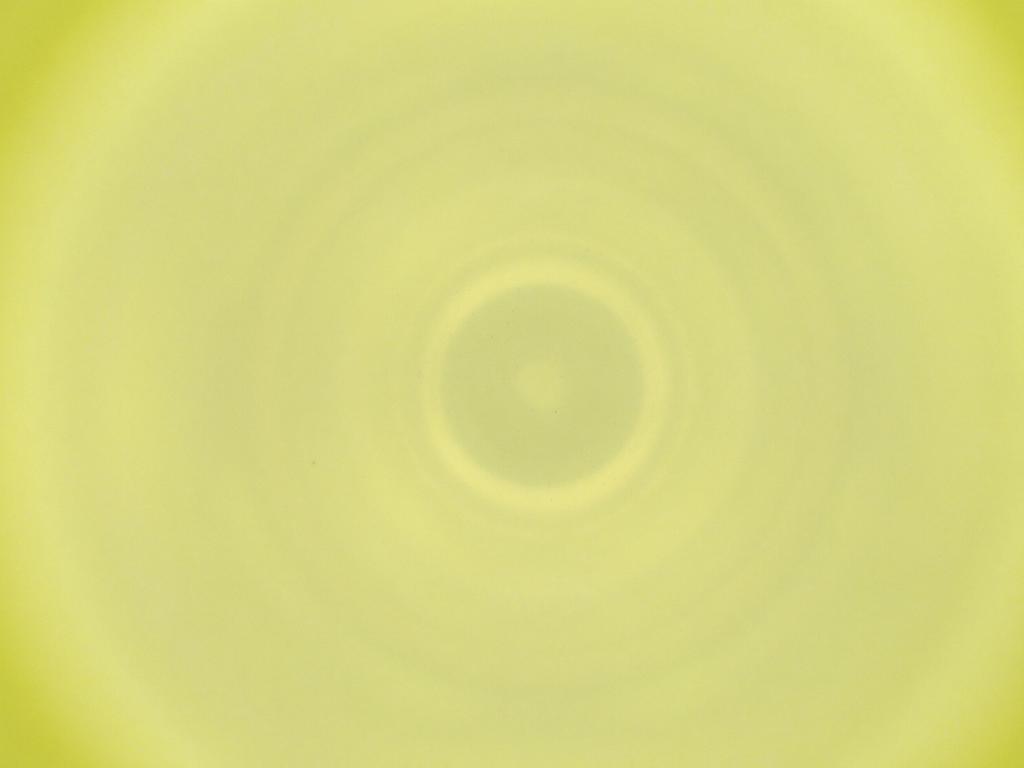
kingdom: Animalia
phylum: Arthropoda
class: Insecta
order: Diptera
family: Cecidomyiidae
